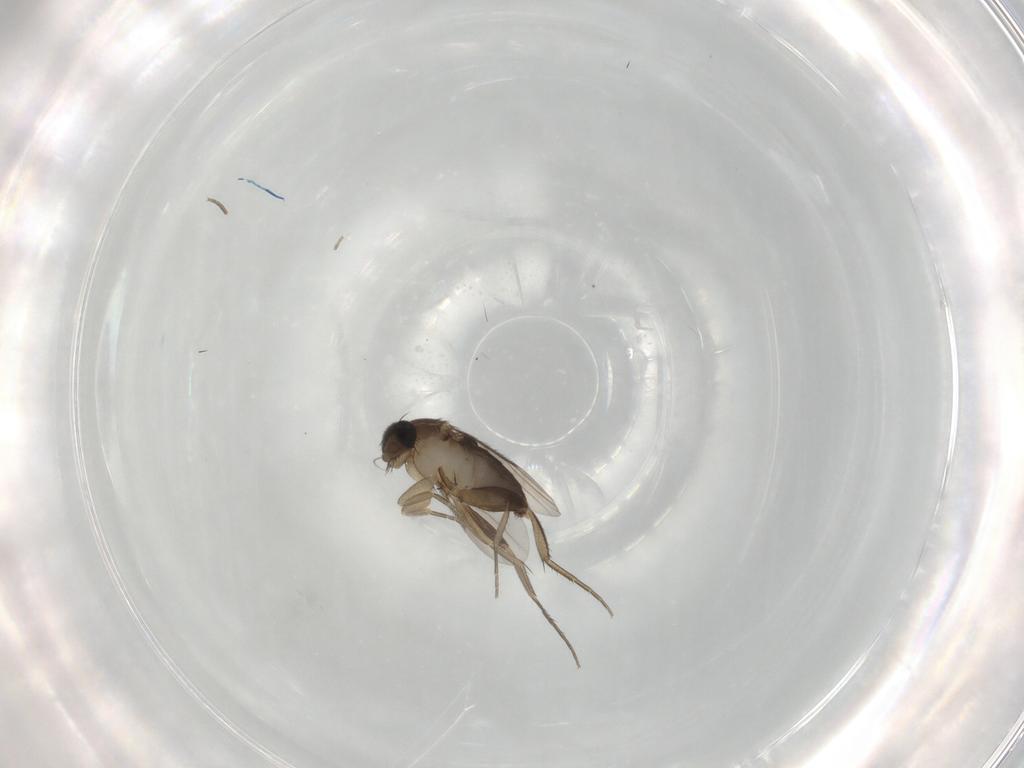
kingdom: Animalia
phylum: Arthropoda
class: Insecta
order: Diptera
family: Phoridae
